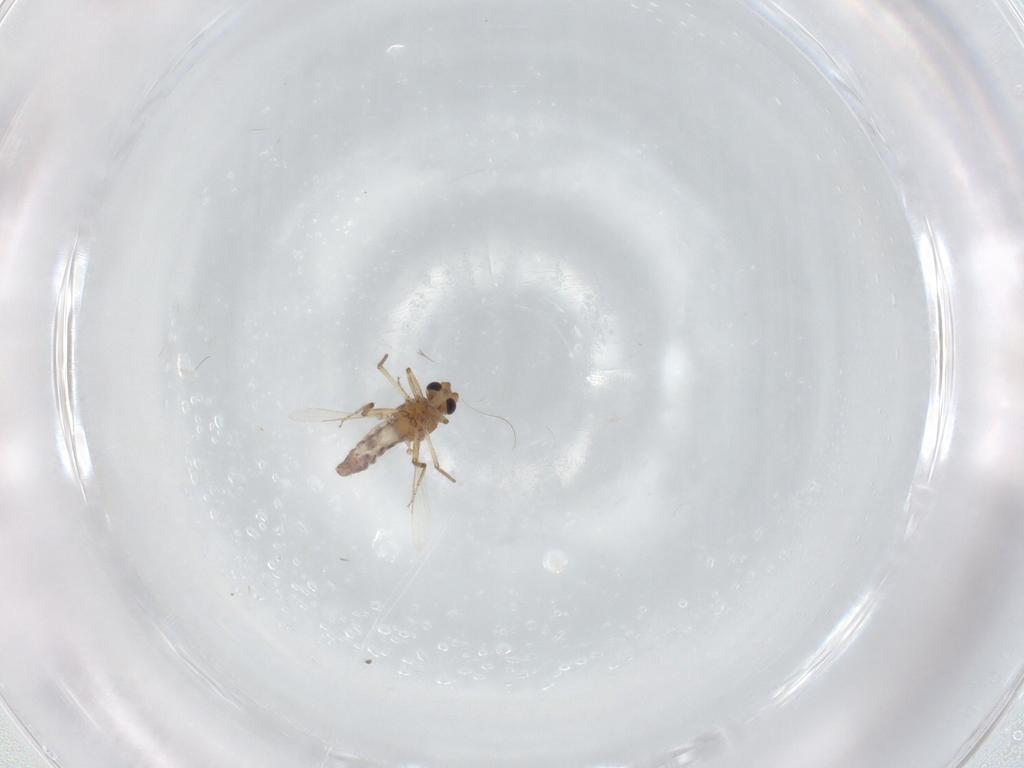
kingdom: Animalia
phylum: Arthropoda
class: Insecta
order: Diptera
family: Ceratopogonidae
